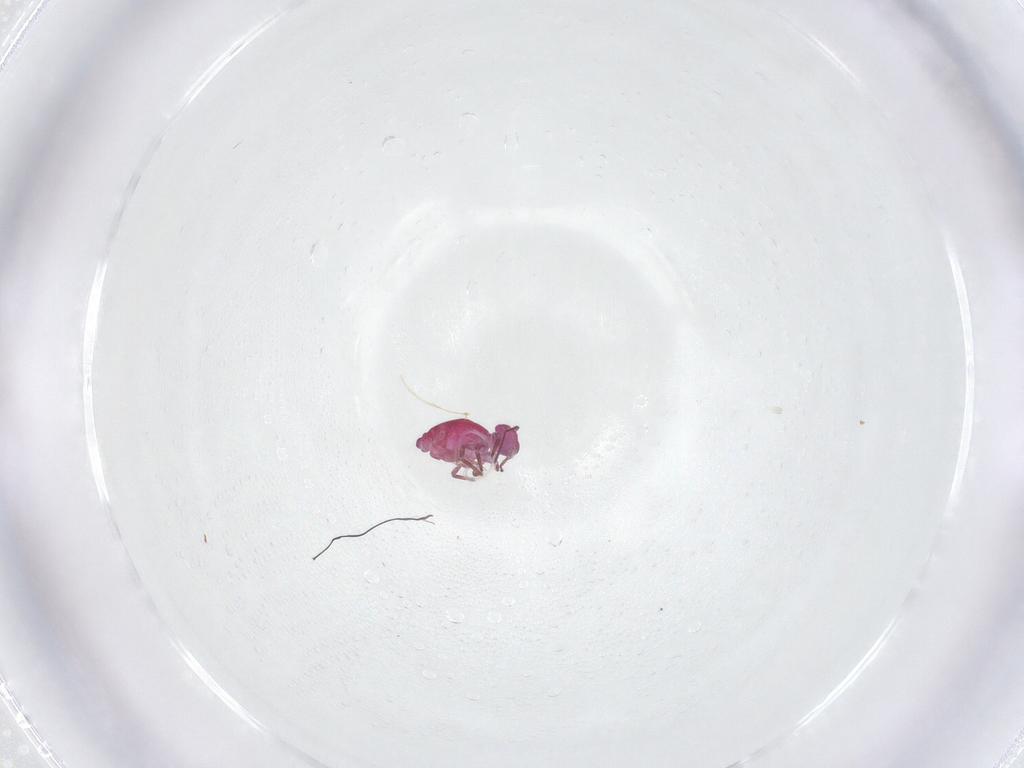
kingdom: Animalia
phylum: Arthropoda
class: Collembola
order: Symphypleona
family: Sminthuridae
